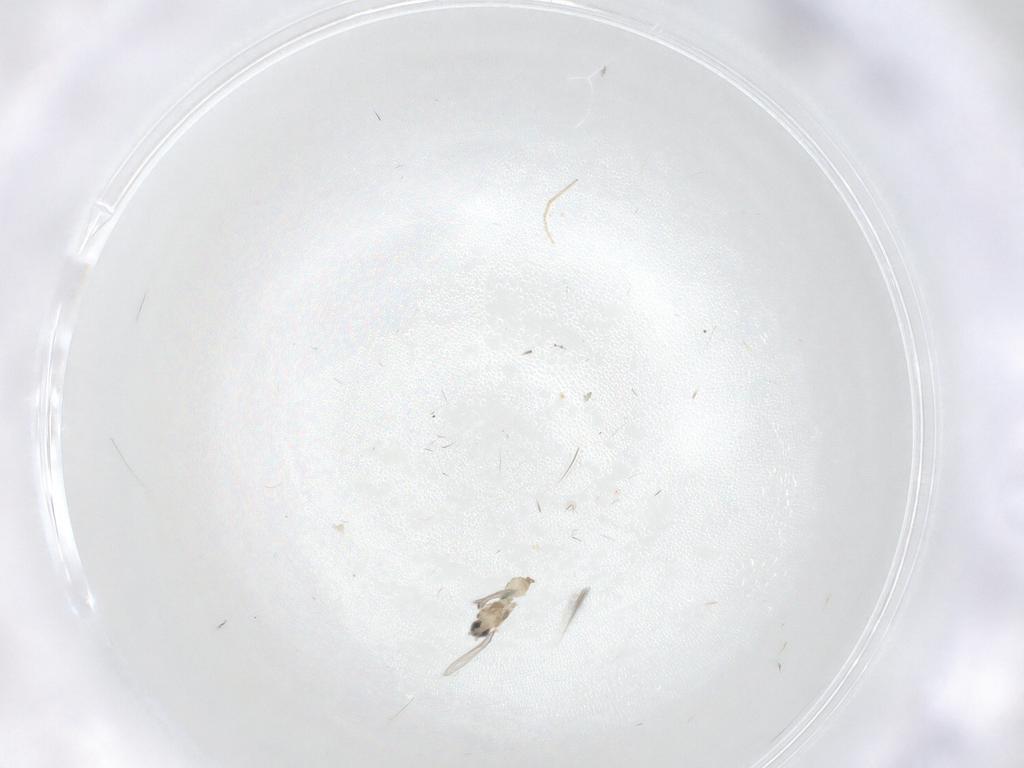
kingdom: Animalia
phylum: Arthropoda
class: Insecta
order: Diptera
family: Cecidomyiidae
